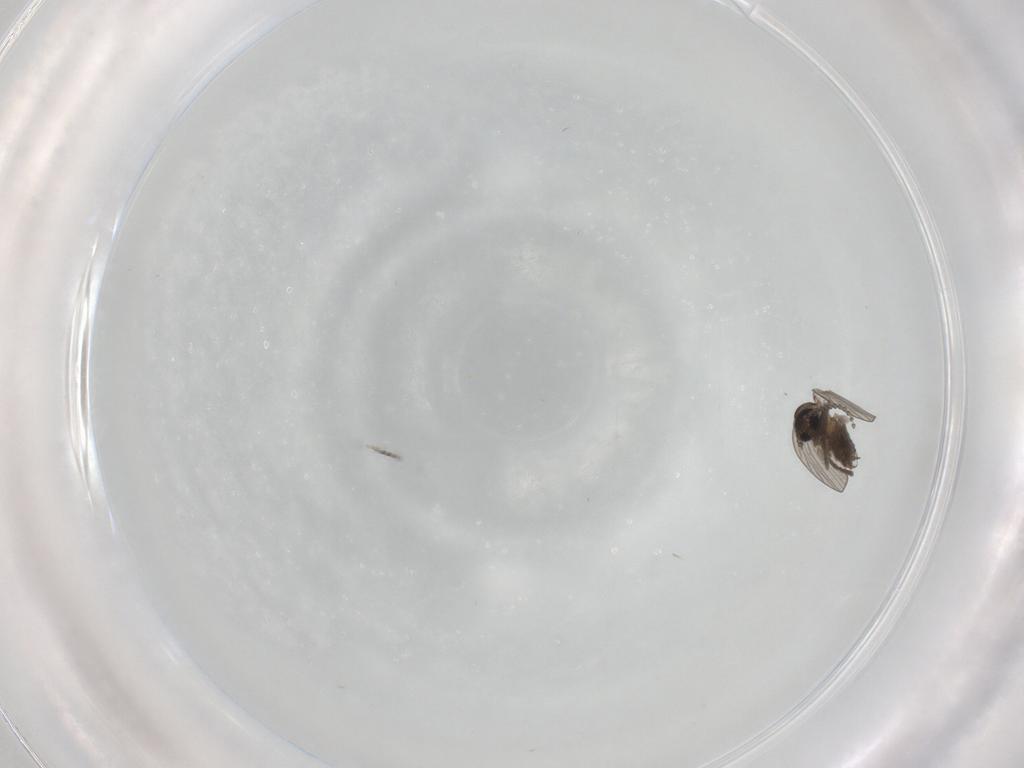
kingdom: Animalia
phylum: Arthropoda
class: Insecta
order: Diptera
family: Psychodidae
